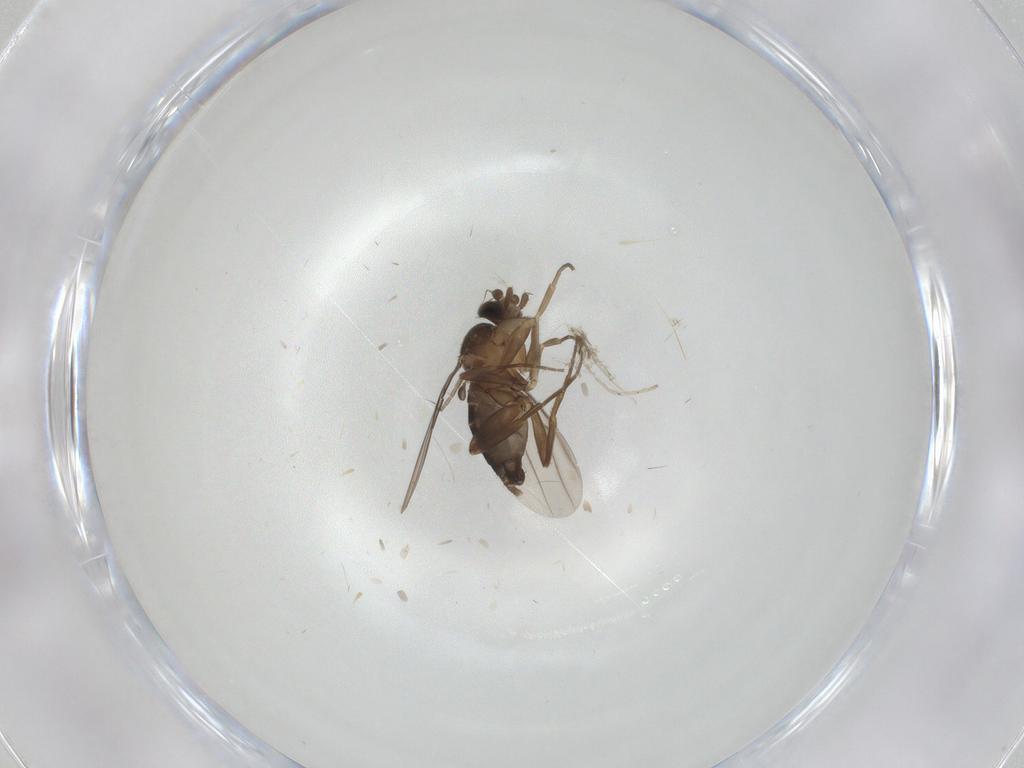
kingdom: Animalia
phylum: Arthropoda
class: Insecta
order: Diptera
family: Phoridae
